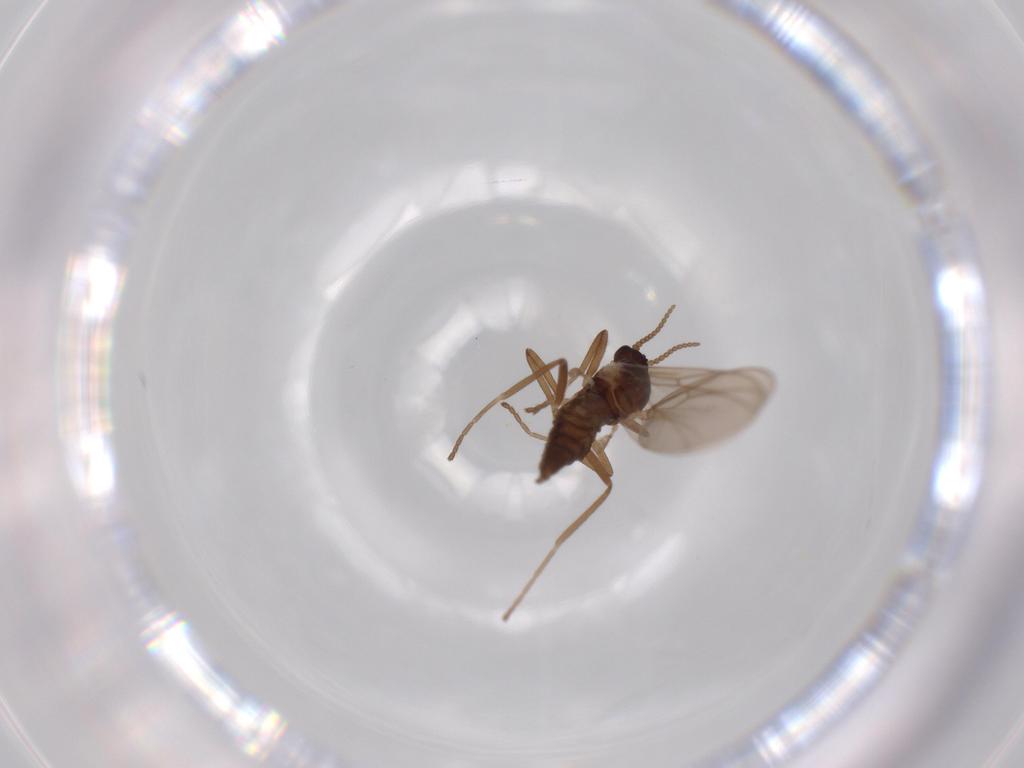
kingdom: Animalia
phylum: Arthropoda
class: Insecta
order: Diptera
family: Cecidomyiidae
